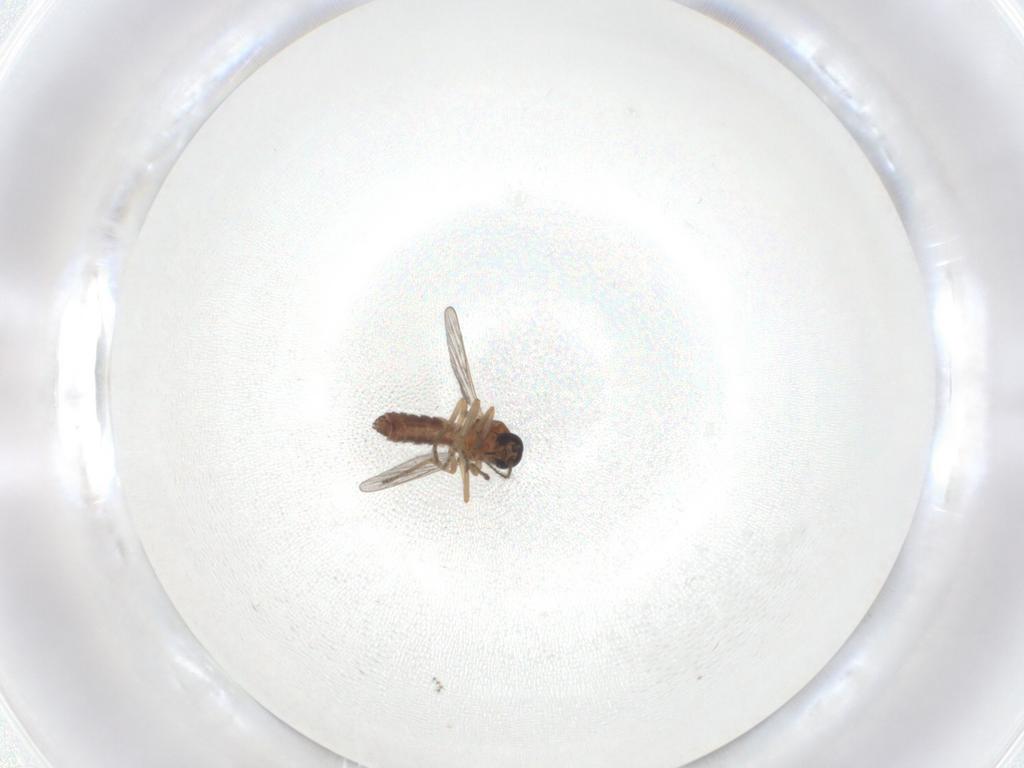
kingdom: Animalia
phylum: Arthropoda
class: Insecta
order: Diptera
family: Ceratopogonidae
